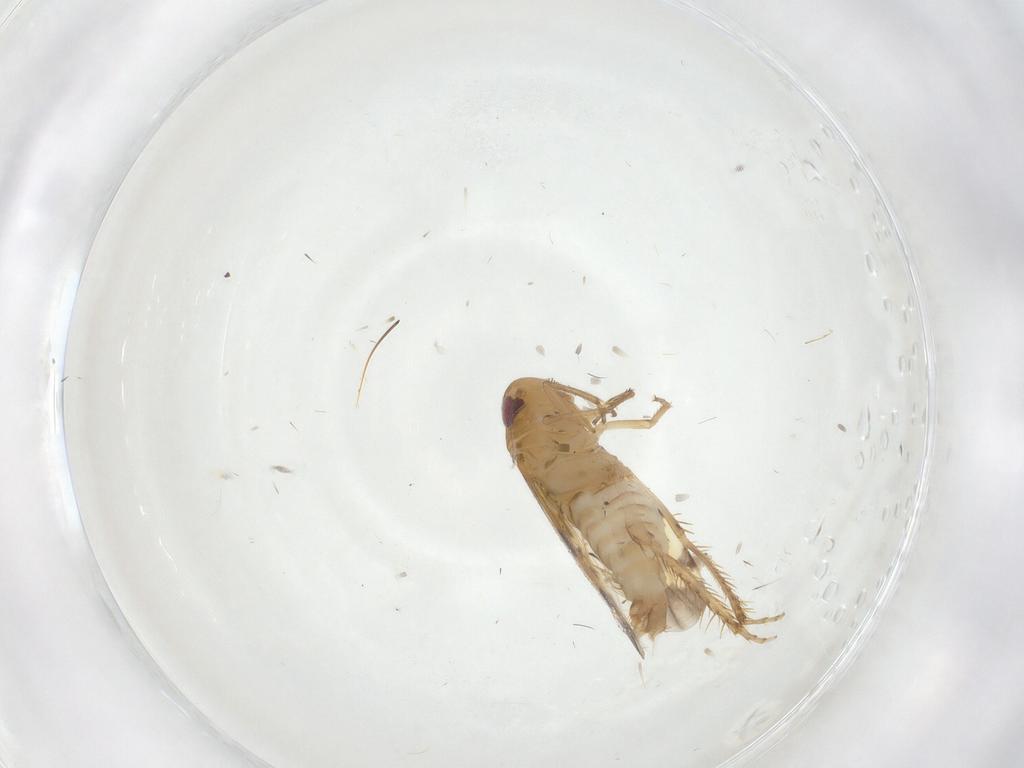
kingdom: Animalia
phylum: Arthropoda
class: Insecta
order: Hemiptera
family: Cicadellidae
